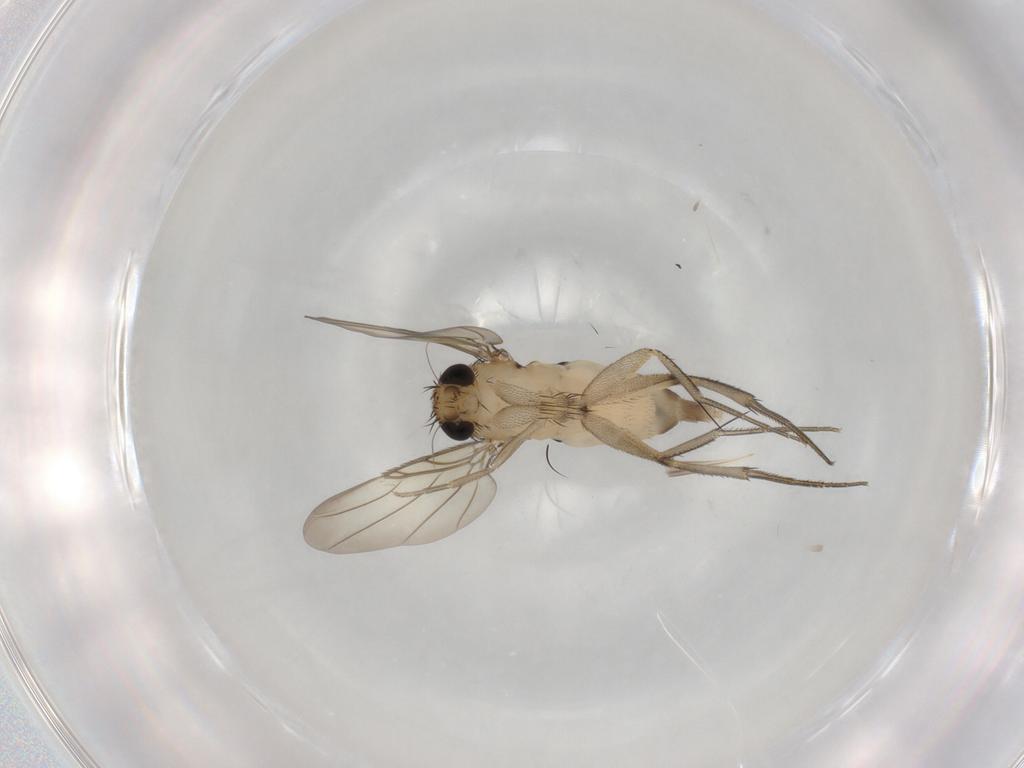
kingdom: Animalia
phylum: Arthropoda
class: Insecta
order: Diptera
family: Phoridae
